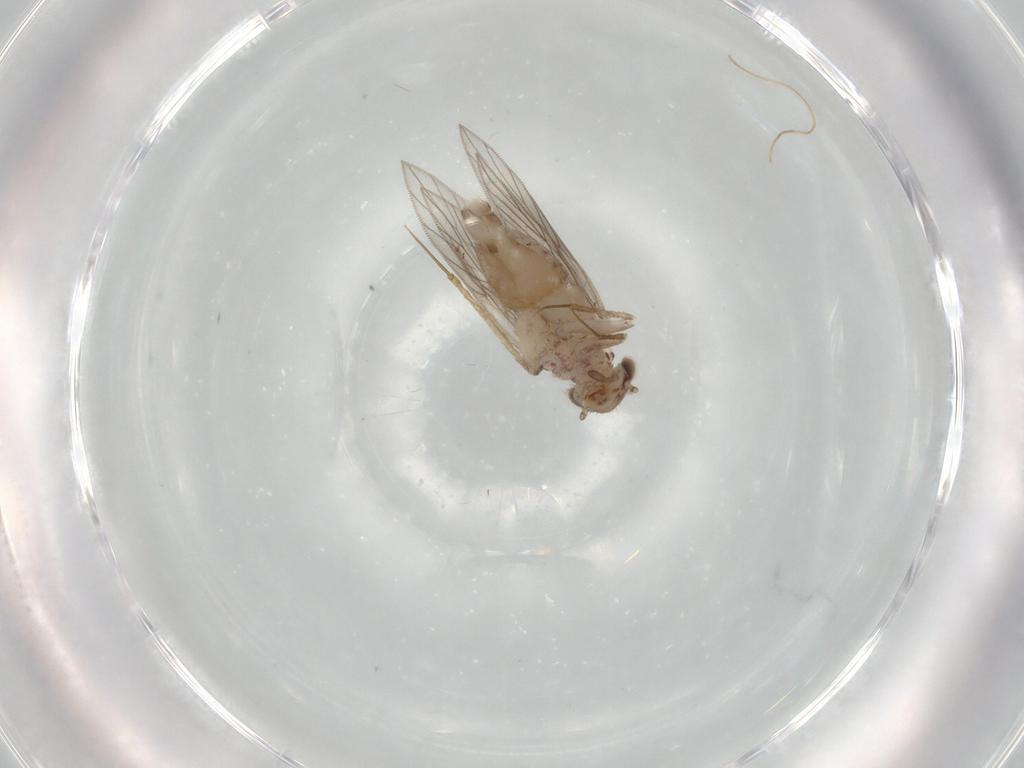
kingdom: Animalia
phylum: Arthropoda
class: Insecta
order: Psocodea
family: Lepidopsocidae
